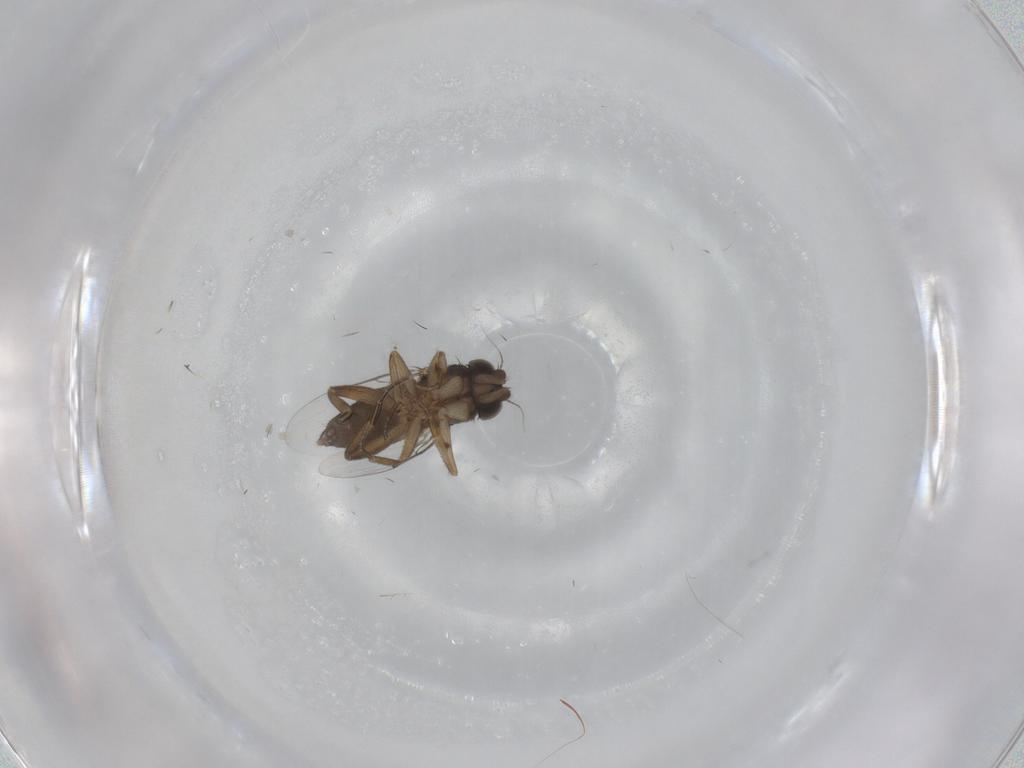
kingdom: Animalia
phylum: Arthropoda
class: Insecta
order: Diptera
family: Phoridae
